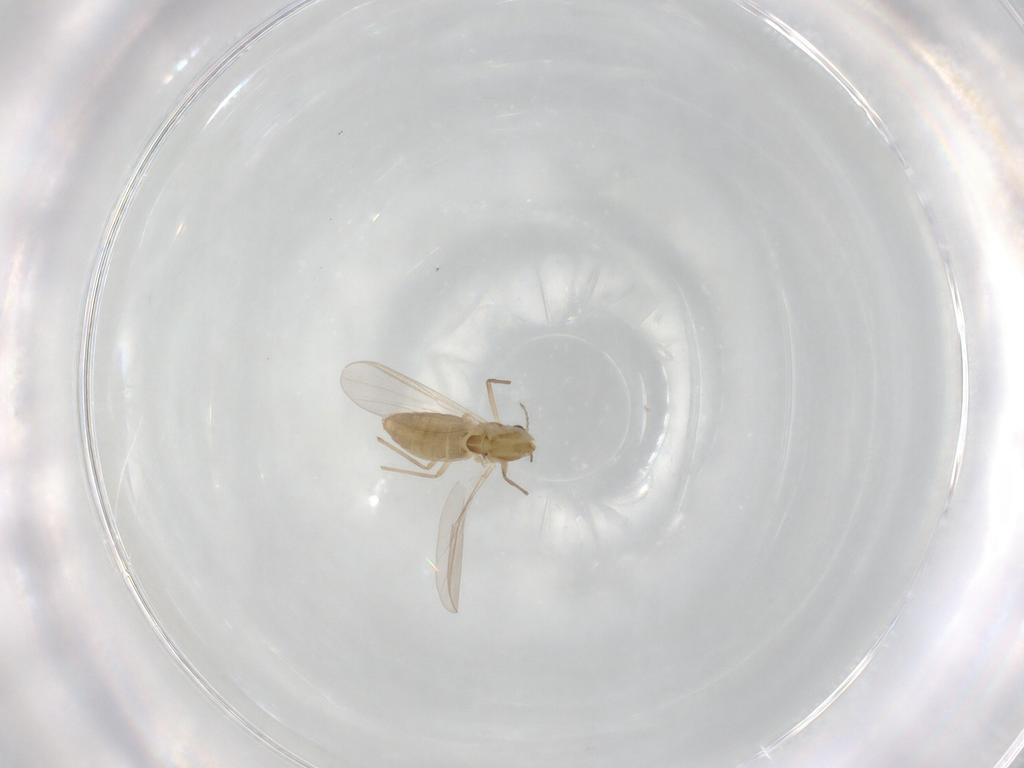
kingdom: Animalia
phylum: Arthropoda
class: Insecta
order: Diptera
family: Chironomidae
